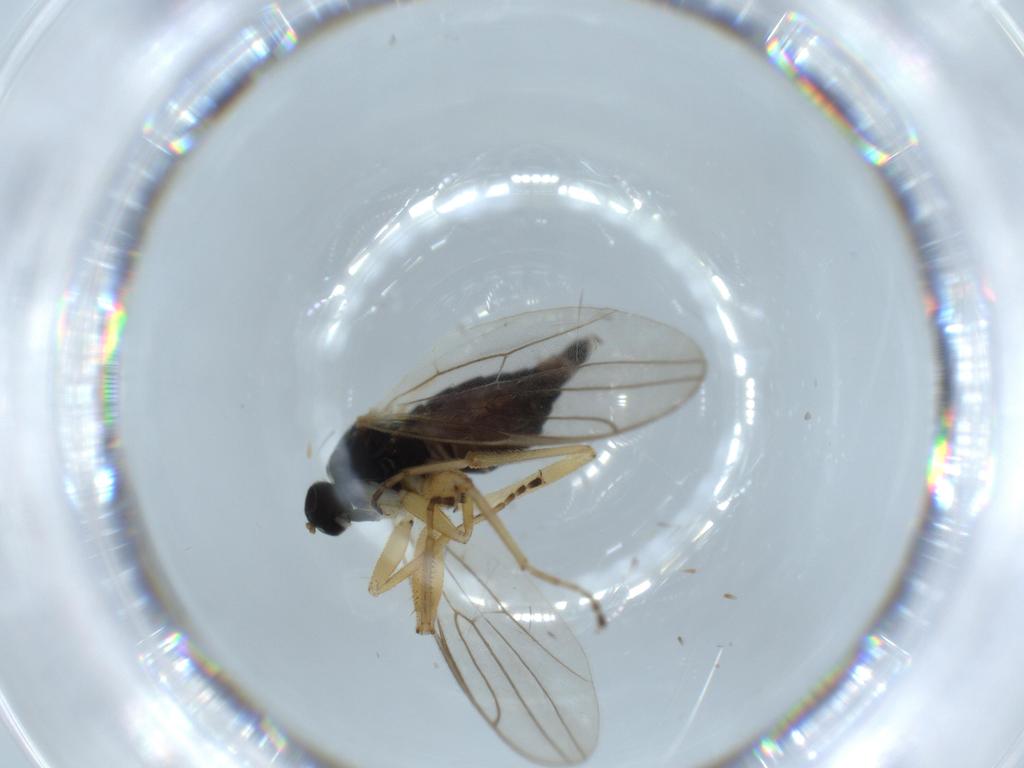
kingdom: Animalia
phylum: Arthropoda
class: Insecta
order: Diptera
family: Hybotidae
